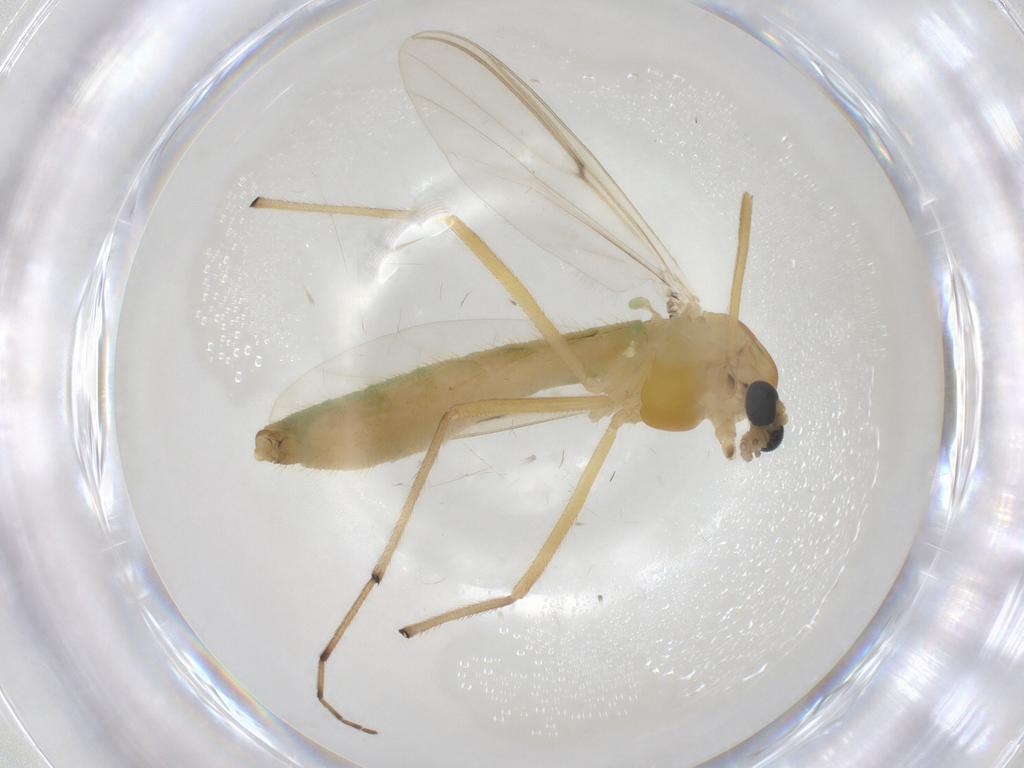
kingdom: Animalia
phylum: Arthropoda
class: Insecta
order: Diptera
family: Chironomidae
